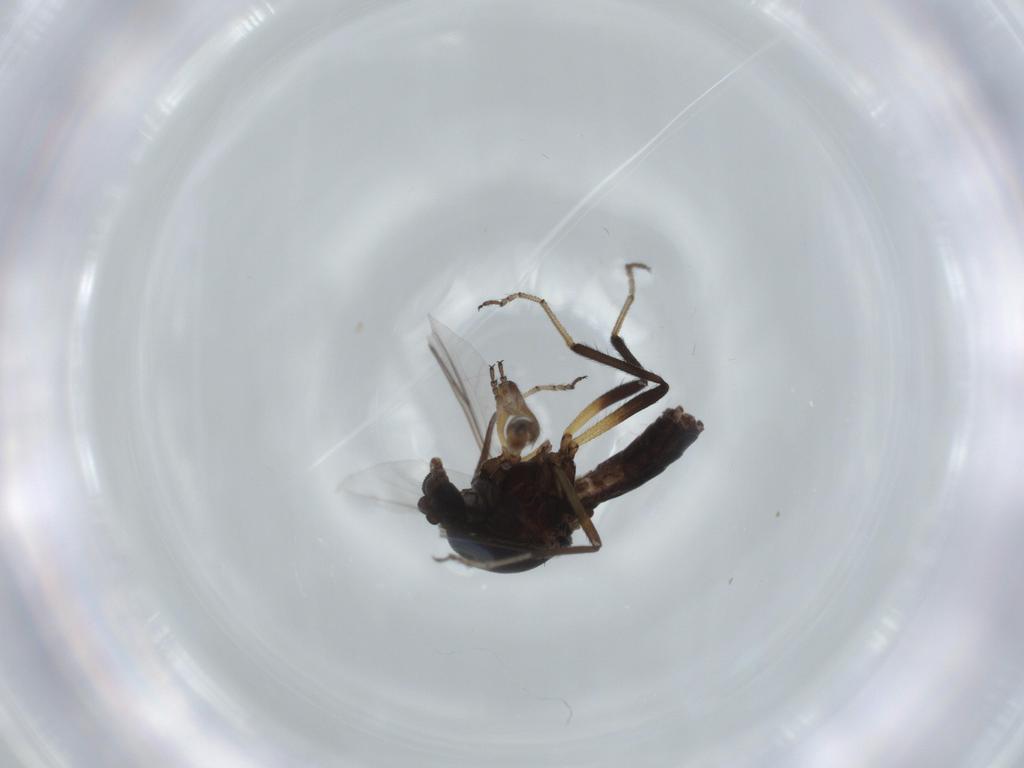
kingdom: Animalia
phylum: Arthropoda
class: Insecta
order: Diptera
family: Ceratopogonidae
